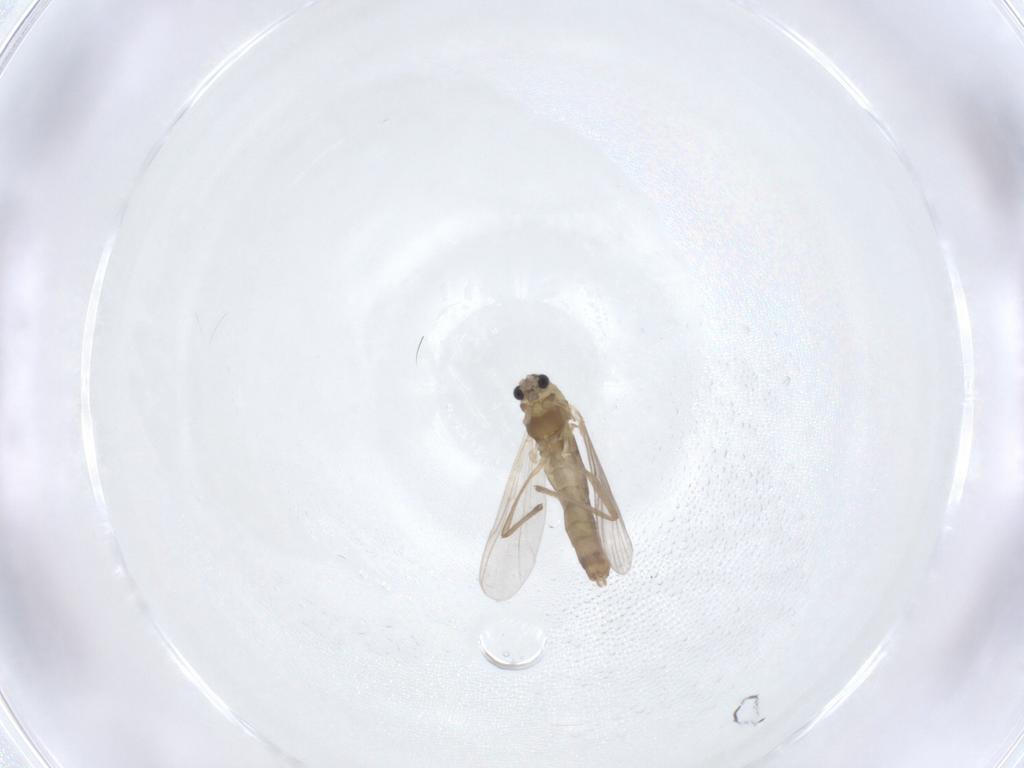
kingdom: Animalia
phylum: Arthropoda
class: Insecta
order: Diptera
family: Chironomidae
